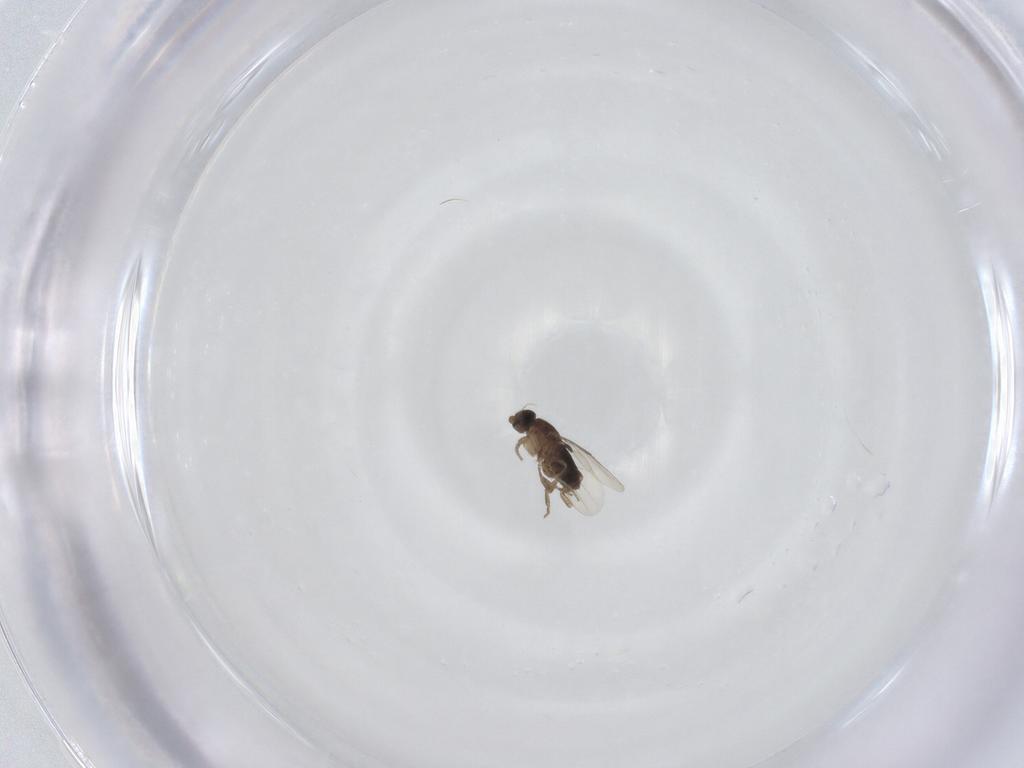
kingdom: Animalia
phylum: Arthropoda
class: Insecta
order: Diptera
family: Phoridae
